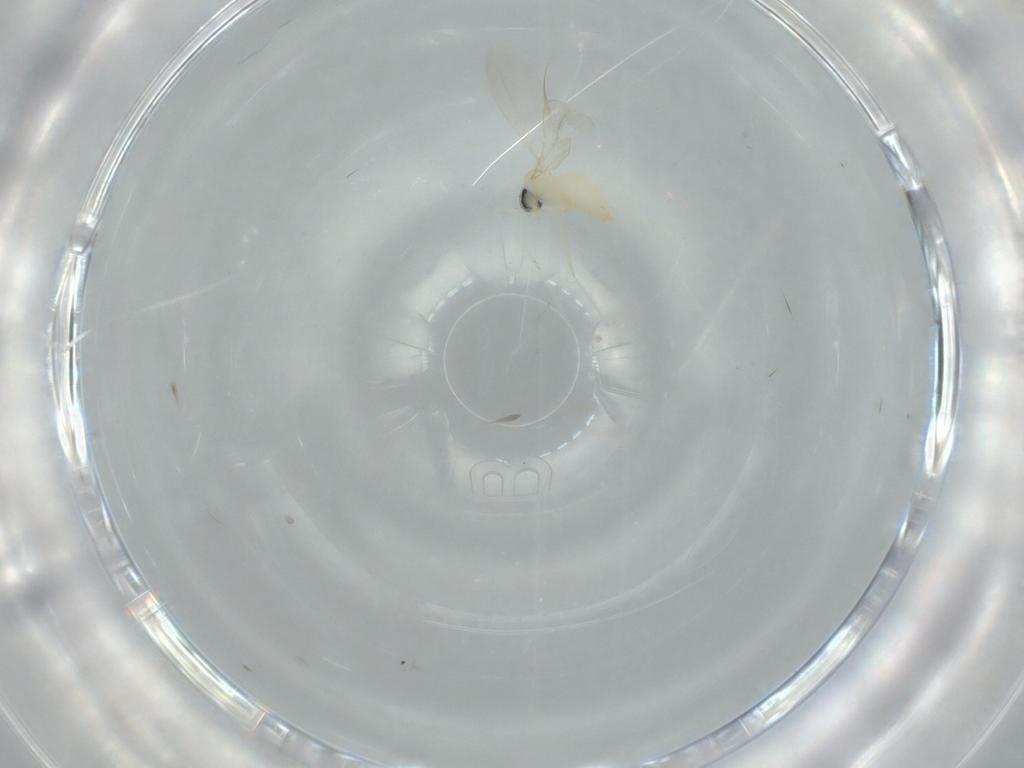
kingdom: Animalia
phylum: Arthropoda
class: Insecta
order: Diptera
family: Cecidomyiidae
